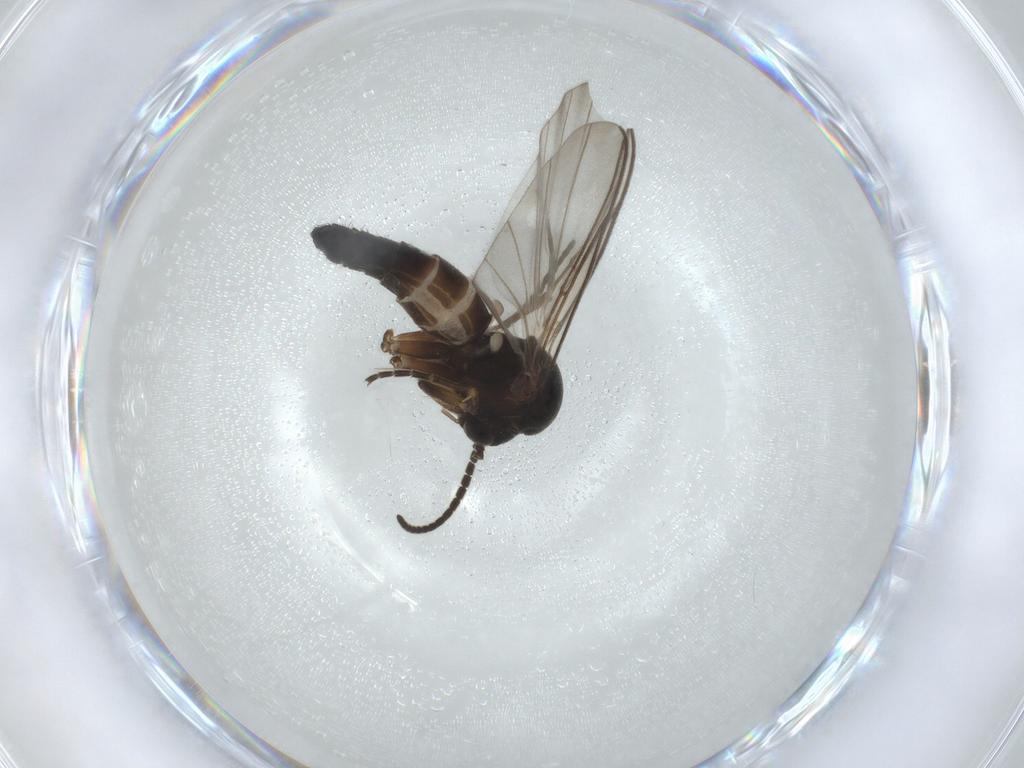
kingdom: Animalia
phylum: Arthropoda
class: Insecta
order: Diptera
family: Mycetophilidae
